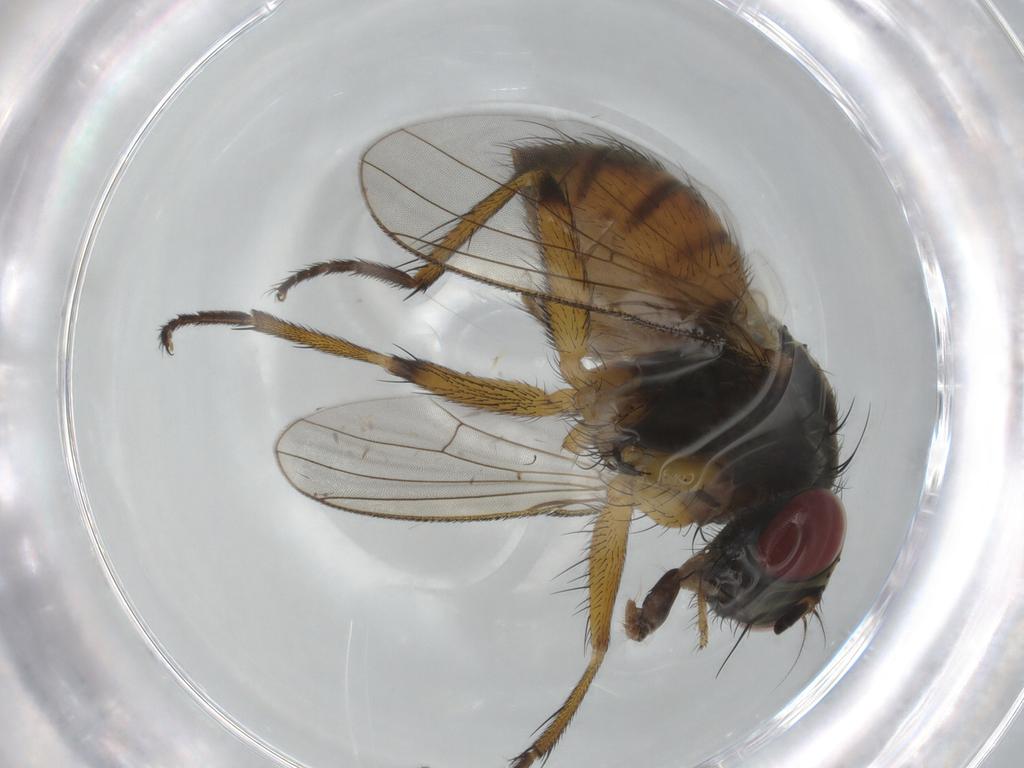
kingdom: Animalia
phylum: Arthropoda
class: Insecta
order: Diptera
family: Muscidae
